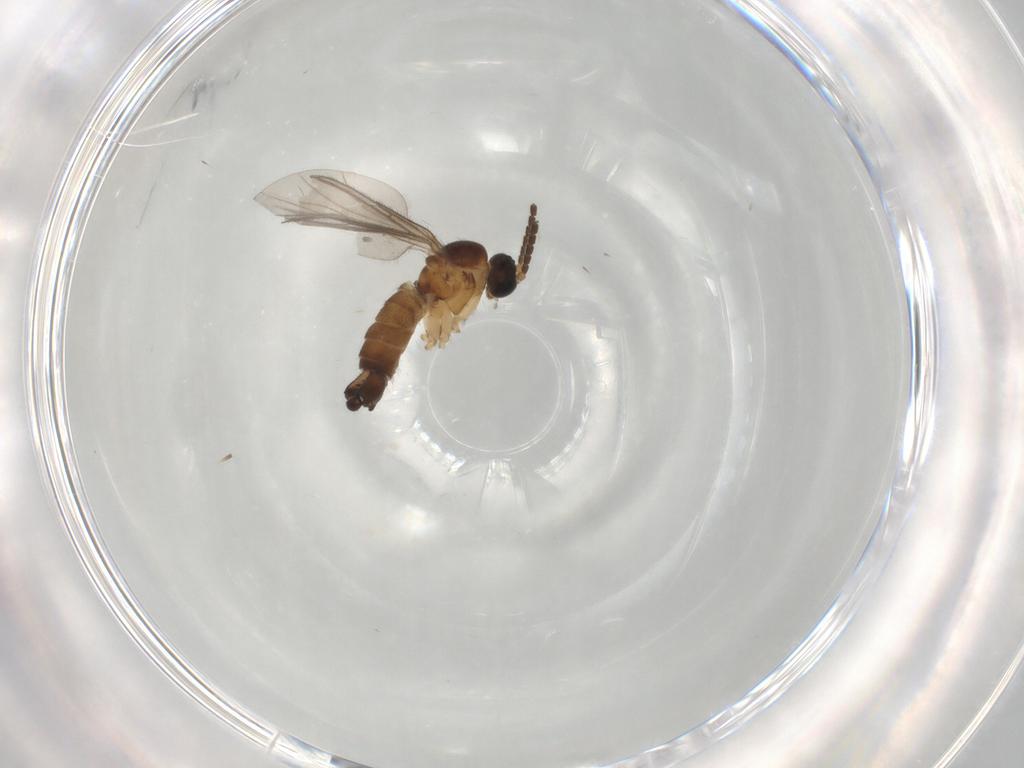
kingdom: Animalia
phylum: Arthropoda
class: Insecta
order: Diptera
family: Sciaridae
